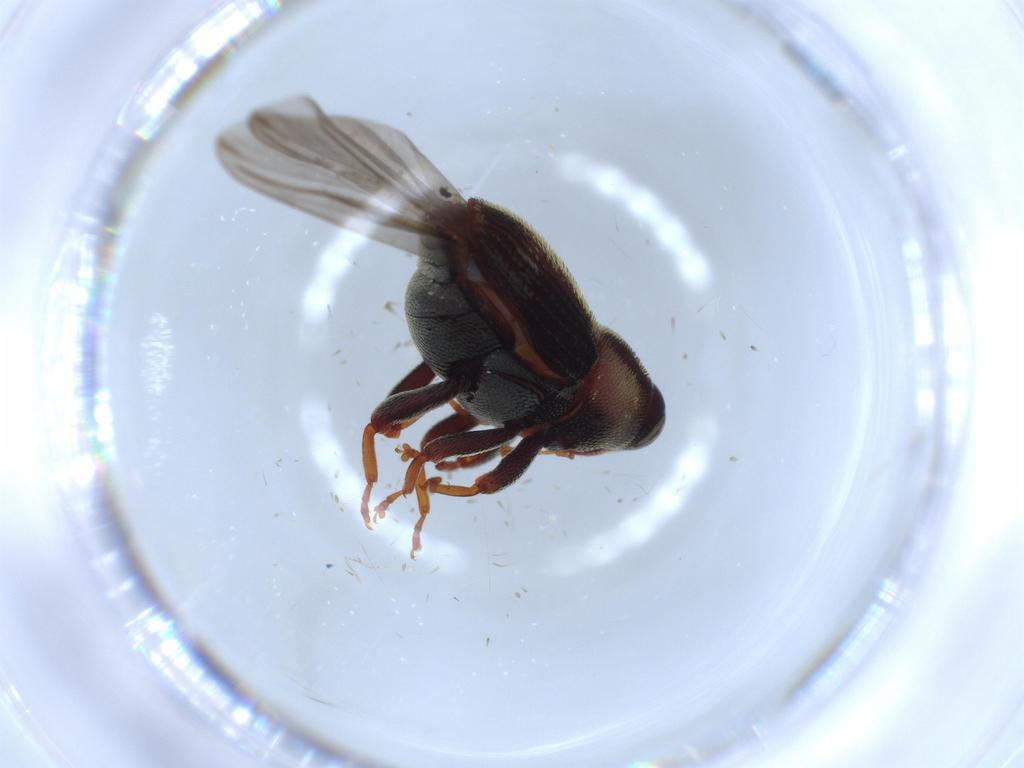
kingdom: Animalia
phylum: Arthropoda
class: Insecta
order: Coleoptera
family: Curculionidae
